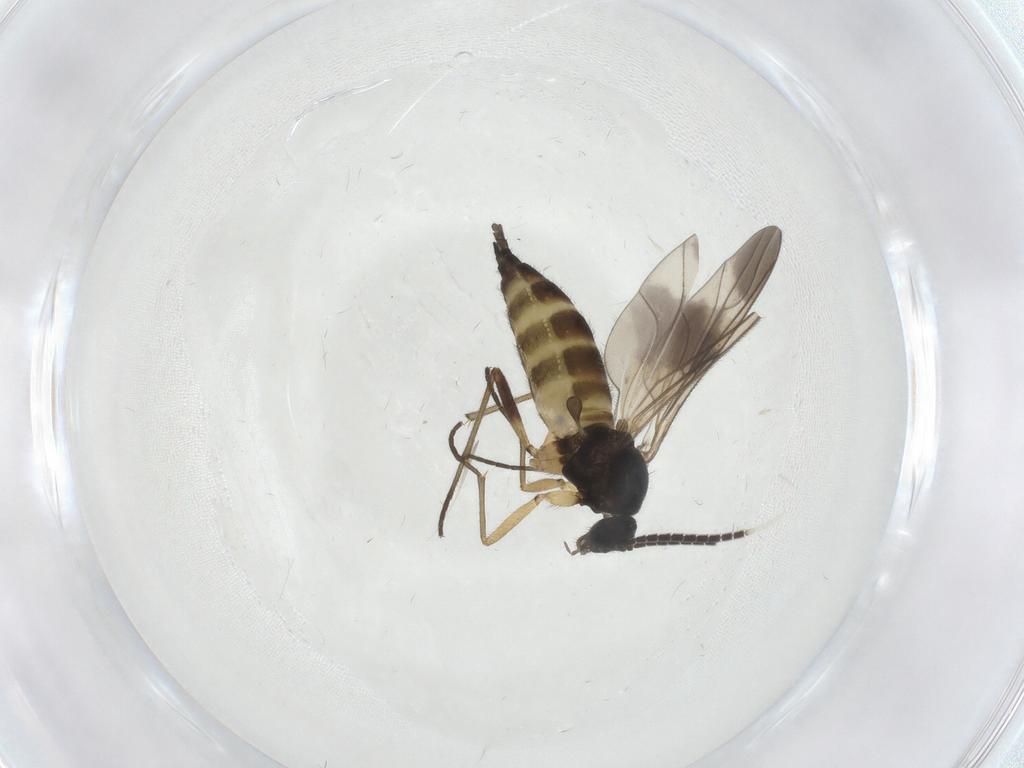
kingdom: Animalia
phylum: Arthropoda
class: Insecta
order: Diptera
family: Sciaridae
